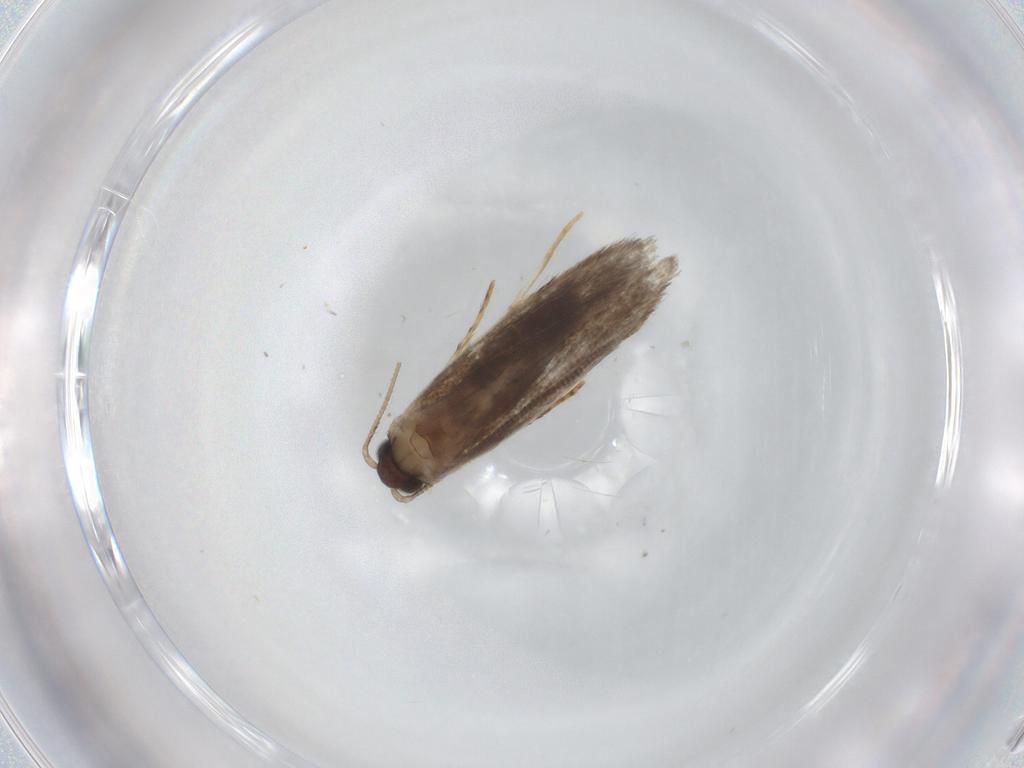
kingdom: Animalia
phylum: Arthropoda
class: Insecta
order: Lepidoptera
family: Tineidae
